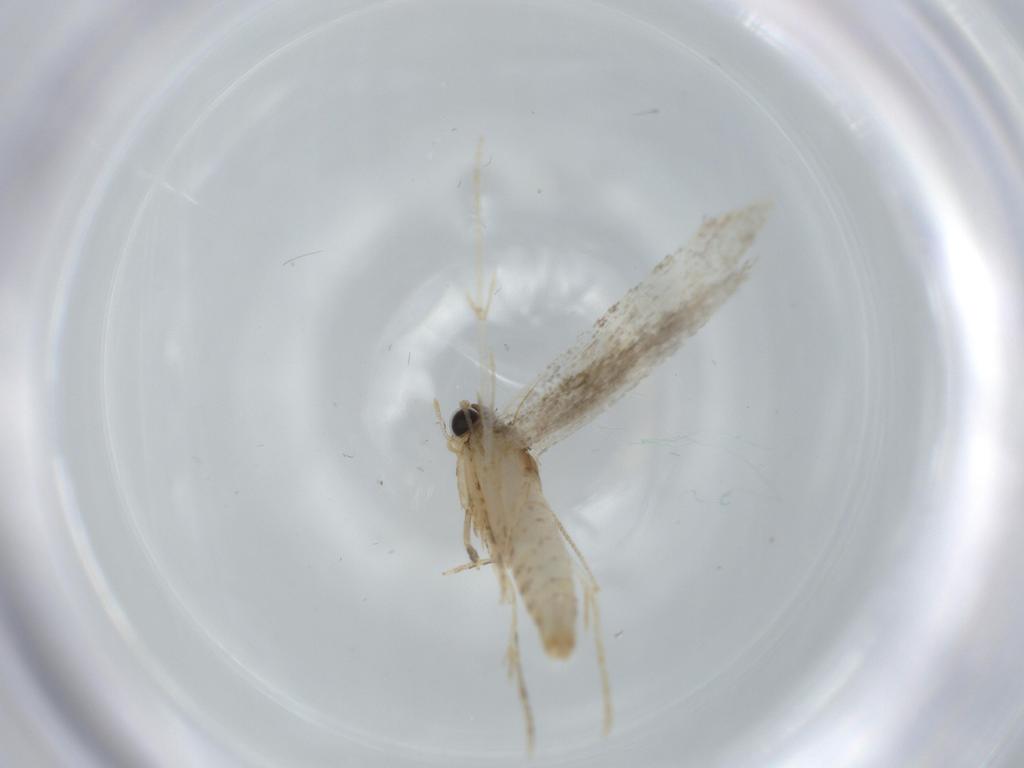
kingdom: Animalia
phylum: Arthropoda
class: Insecta
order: Lepidoptera
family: Tineidae
